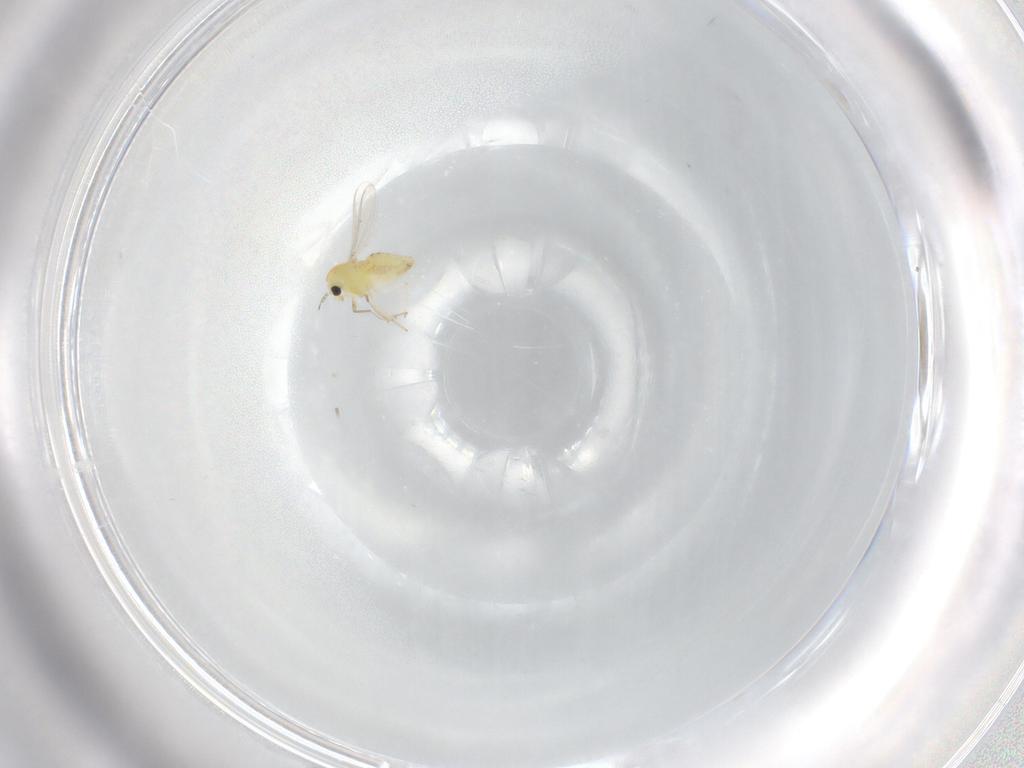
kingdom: Animalia
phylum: Arthropoda
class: Insecta
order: Diptera
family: Chironomidae
